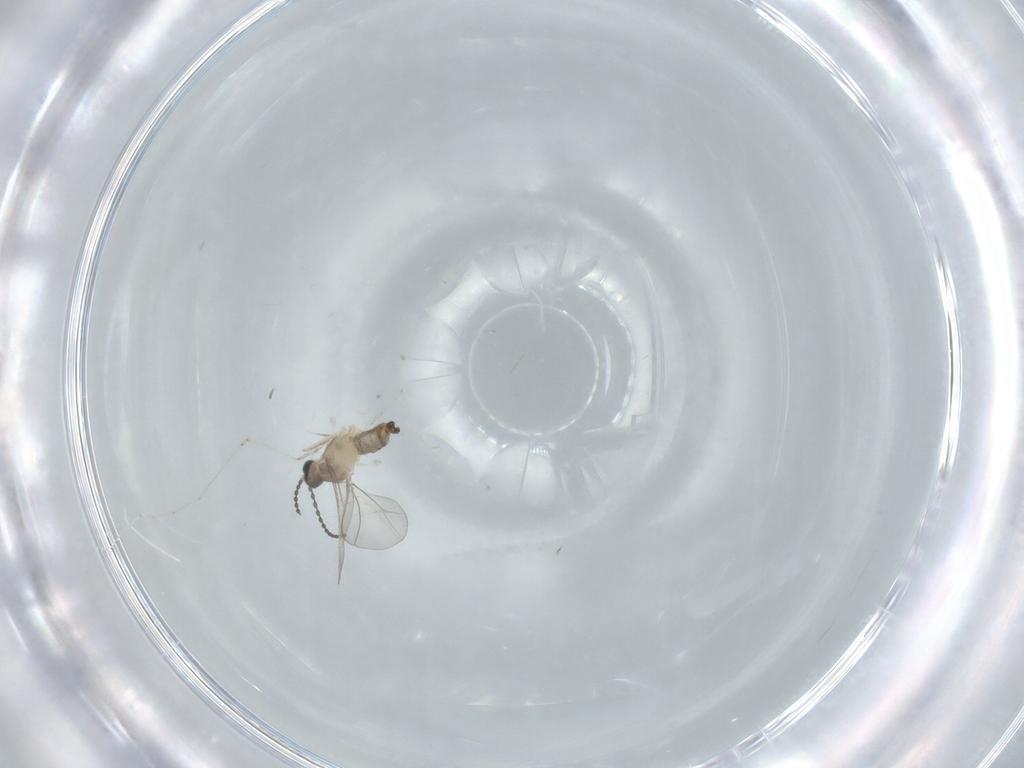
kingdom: Animalia
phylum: Arthropoda
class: Insecta
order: Diptera
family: Cecidomyiidae
